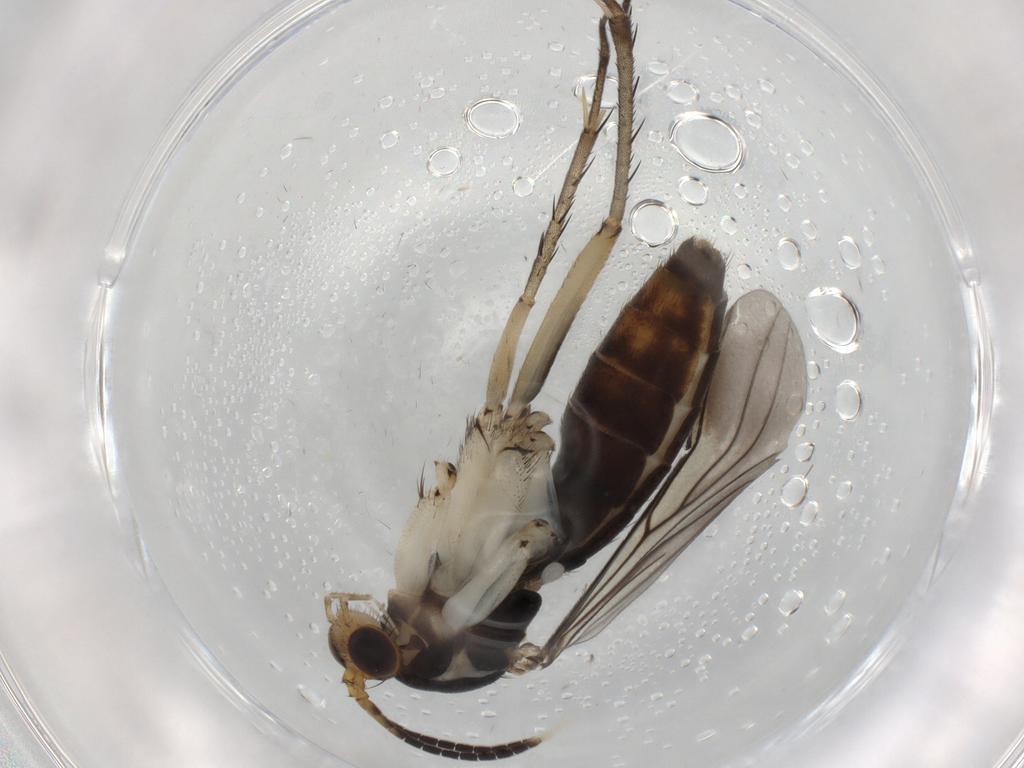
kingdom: Animalia
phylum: Arthropoda
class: Insecta
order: Diptera
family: Mycetophilidae
